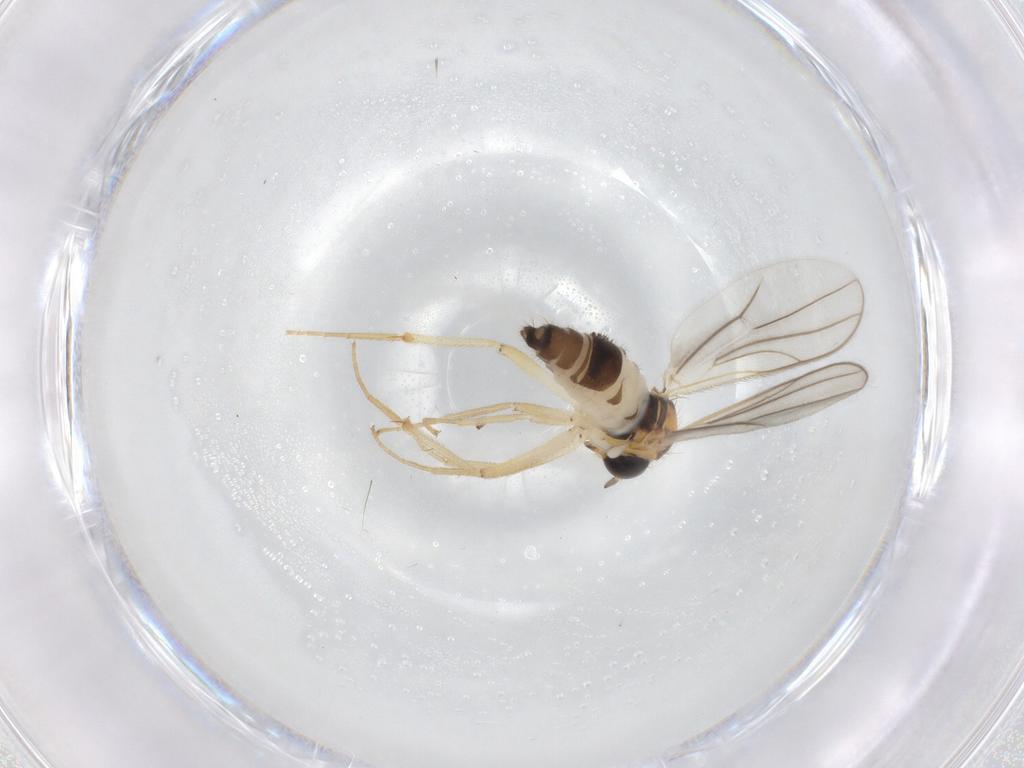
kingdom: Animalia
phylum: Arthropoda
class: Insecta
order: Diptera
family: Hybotidae
